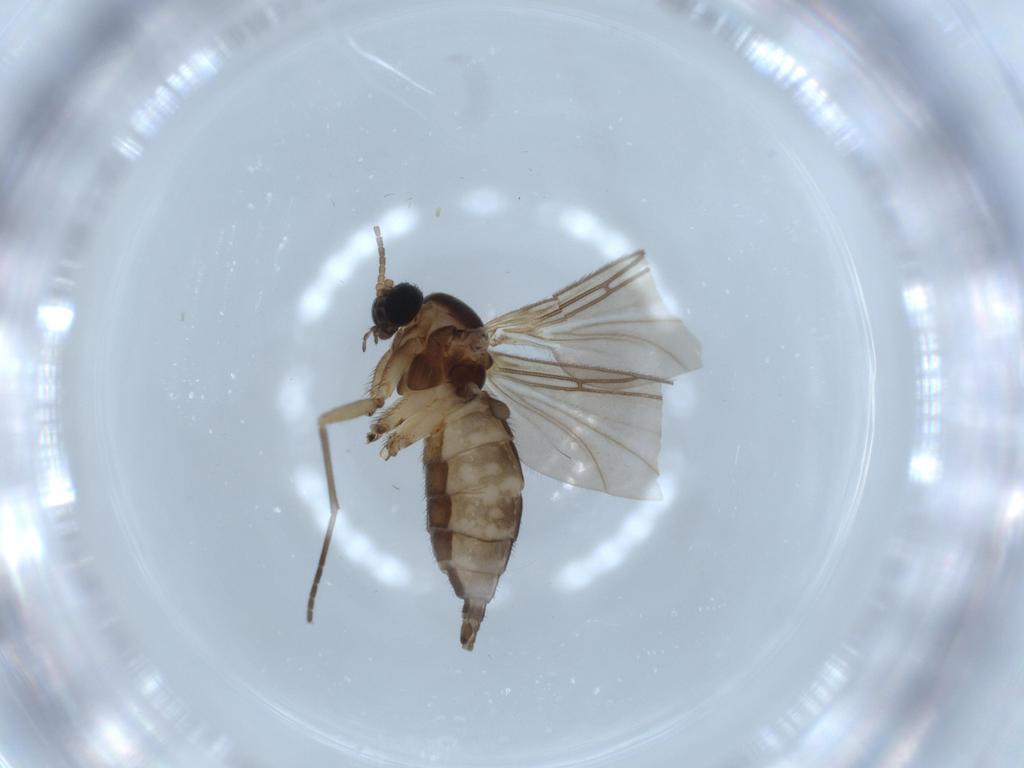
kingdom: Animalia
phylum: Arthropoda
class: Insecta
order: Diptera
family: Sciaridae
